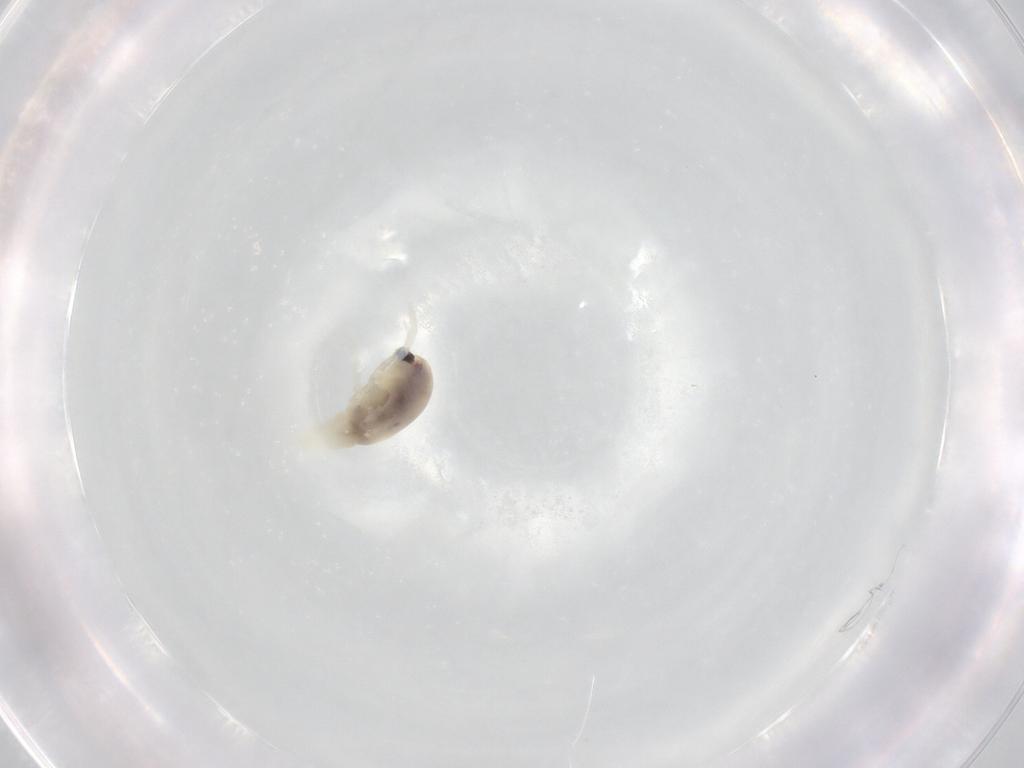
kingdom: Animalia
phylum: Arthropoda
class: Arachnida
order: Trombidiformes
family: Rhagidiidae
